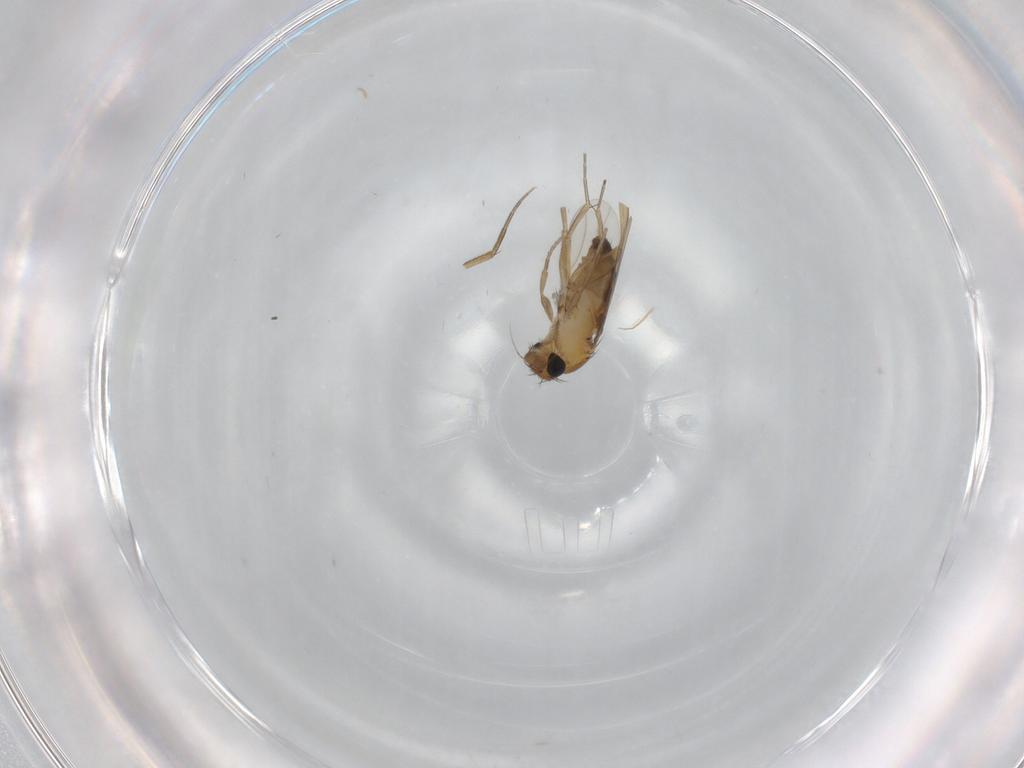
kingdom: Animalia
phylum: Arthropoda
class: Insecta
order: Diptera
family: Phoridae
